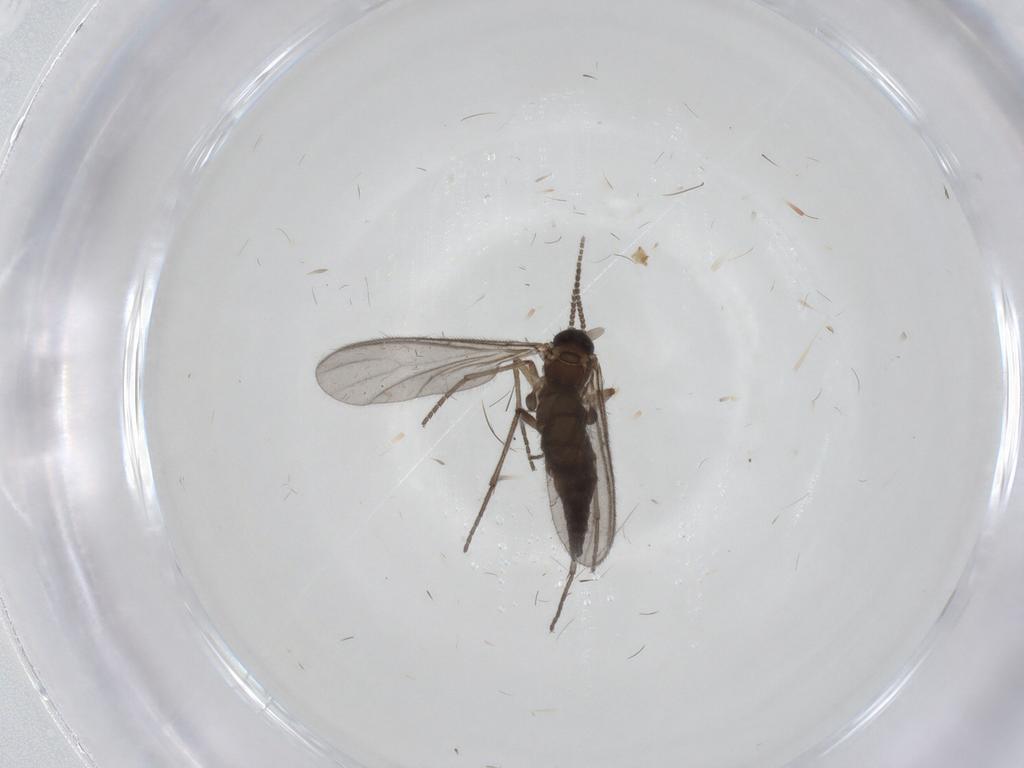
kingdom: Animalia
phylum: Arthropoda
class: Insecta
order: Diptera
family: Sciaridae
